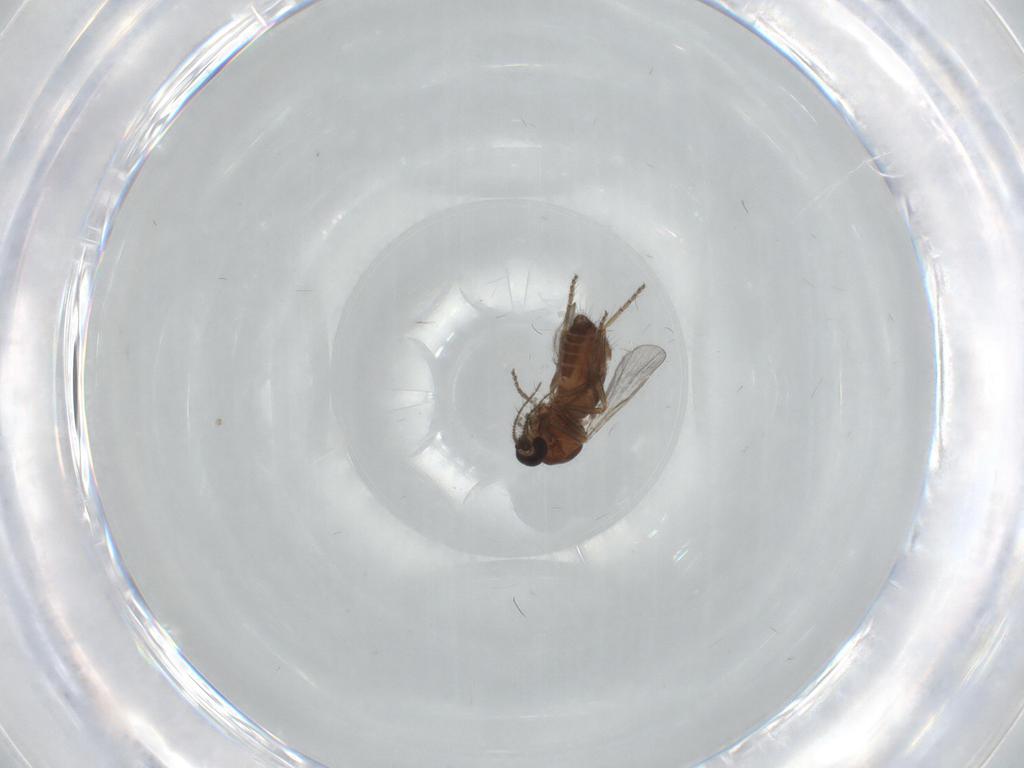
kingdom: Animalia
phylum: Arthropoda
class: Insecta
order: Diptera
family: Ceratopogonidae
